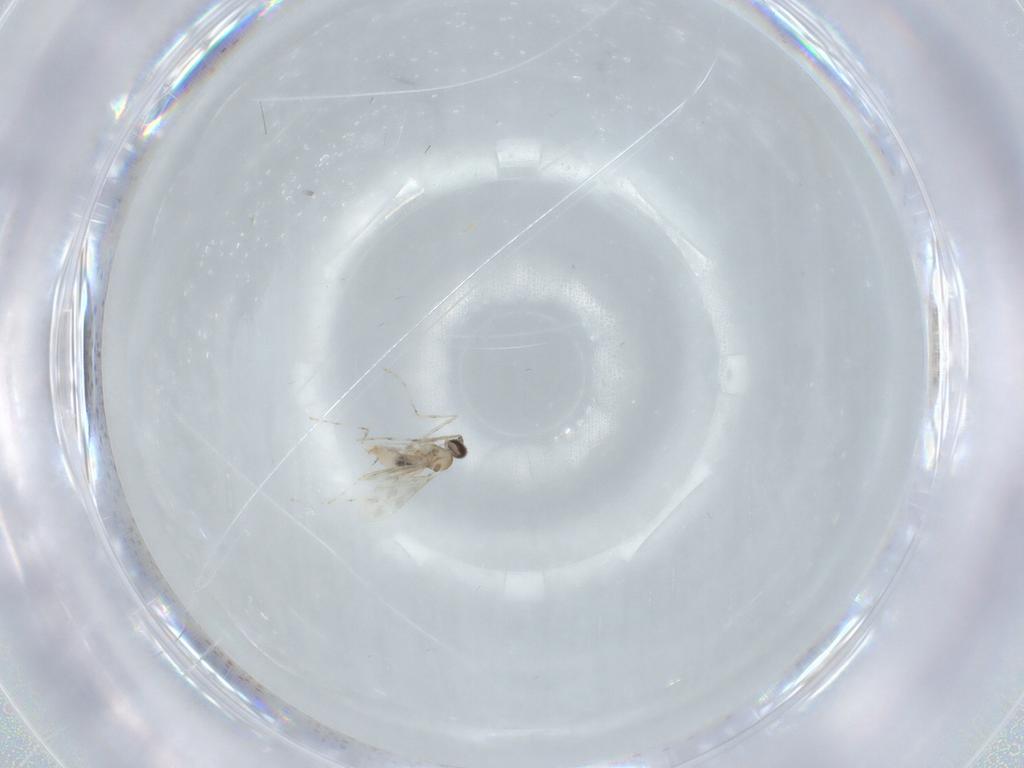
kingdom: Animalia
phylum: Arthropoda
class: Insecta
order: Diptera
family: Cecidomyiidae
